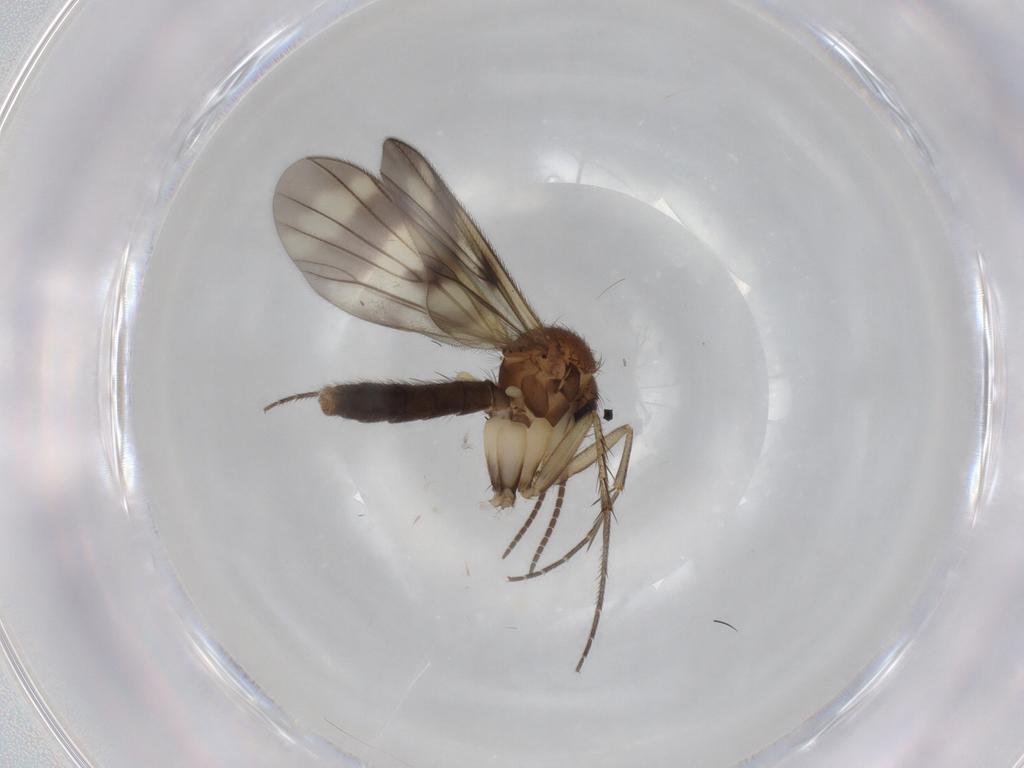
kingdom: Animalia
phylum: Arthropoda
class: Insecta
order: Diptera
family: Mycetophilidae
